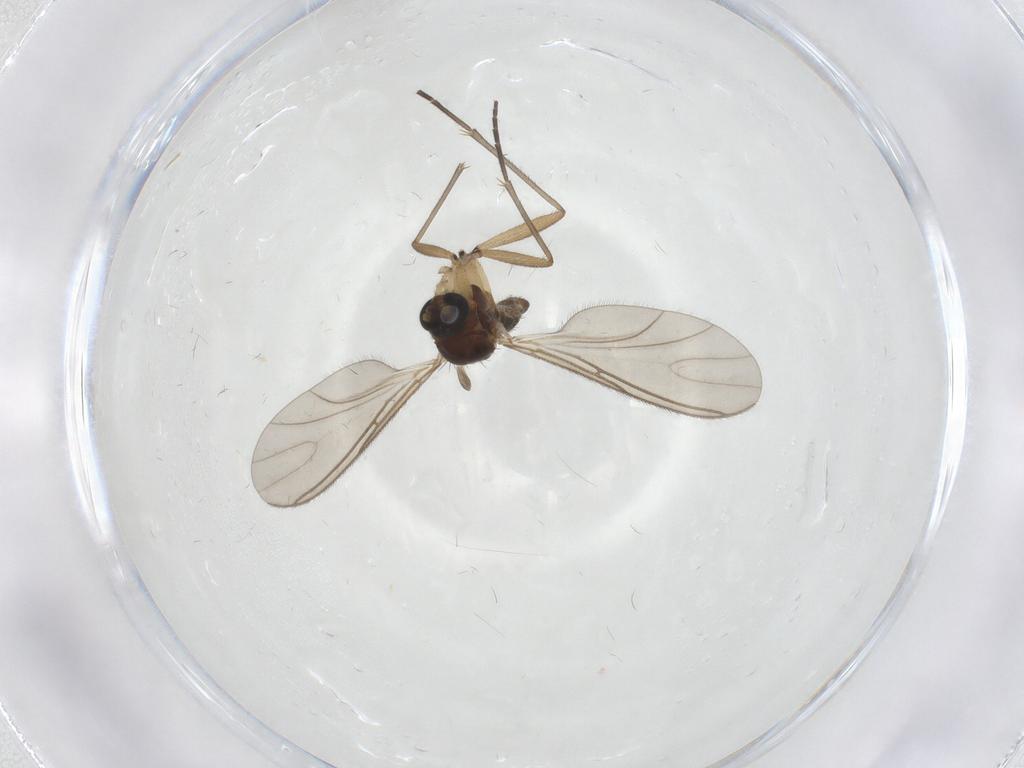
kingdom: Animalia
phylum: Arthropoda
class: Insecta
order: Diptera
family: Sciaridae
